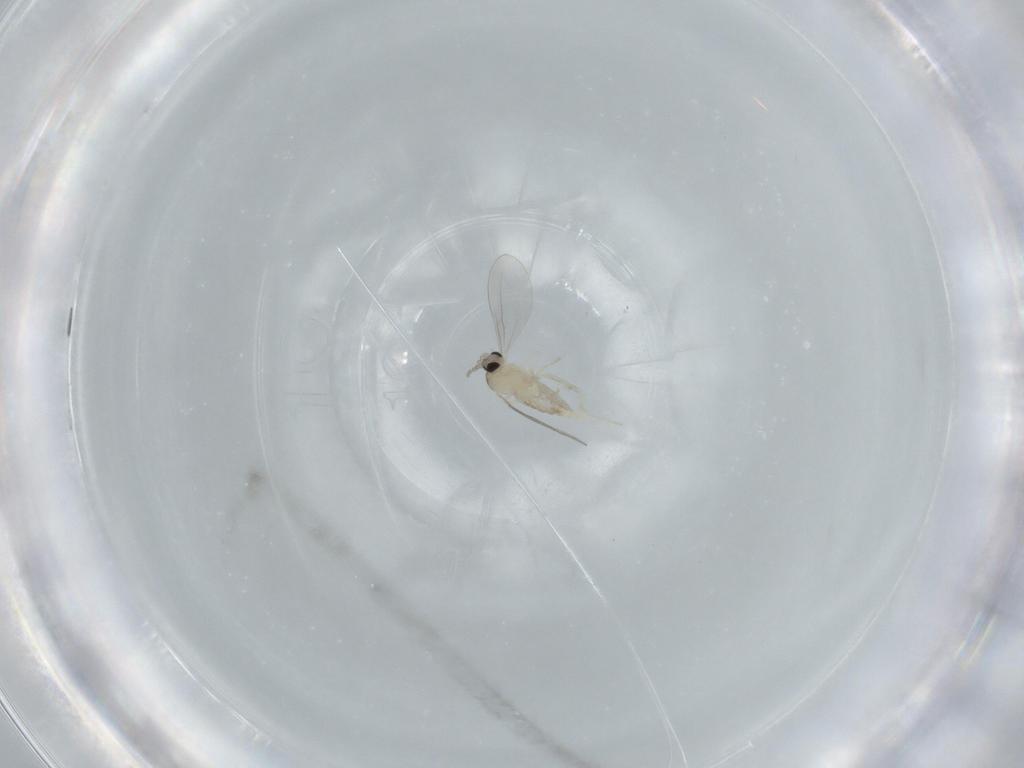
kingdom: Animalia
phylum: Arthropoda
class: Insecta
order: Diptera
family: Cecidomyiidae
